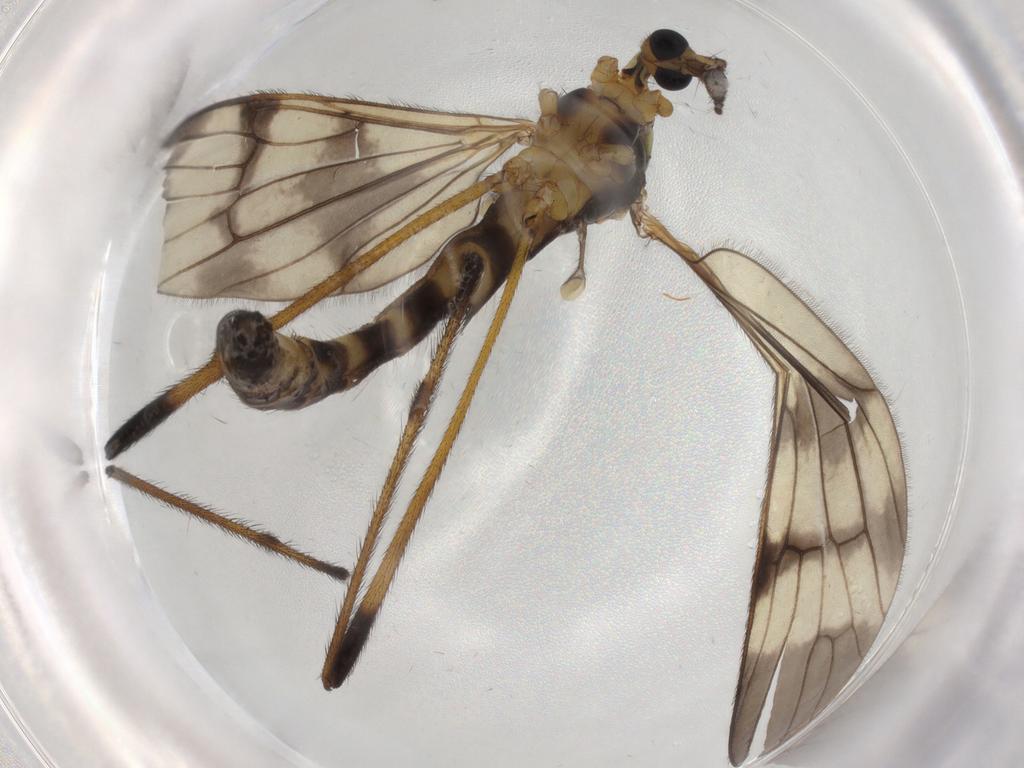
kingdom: Animalia
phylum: Arthropoda
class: Insecta
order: Diptera
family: Limoniidae
